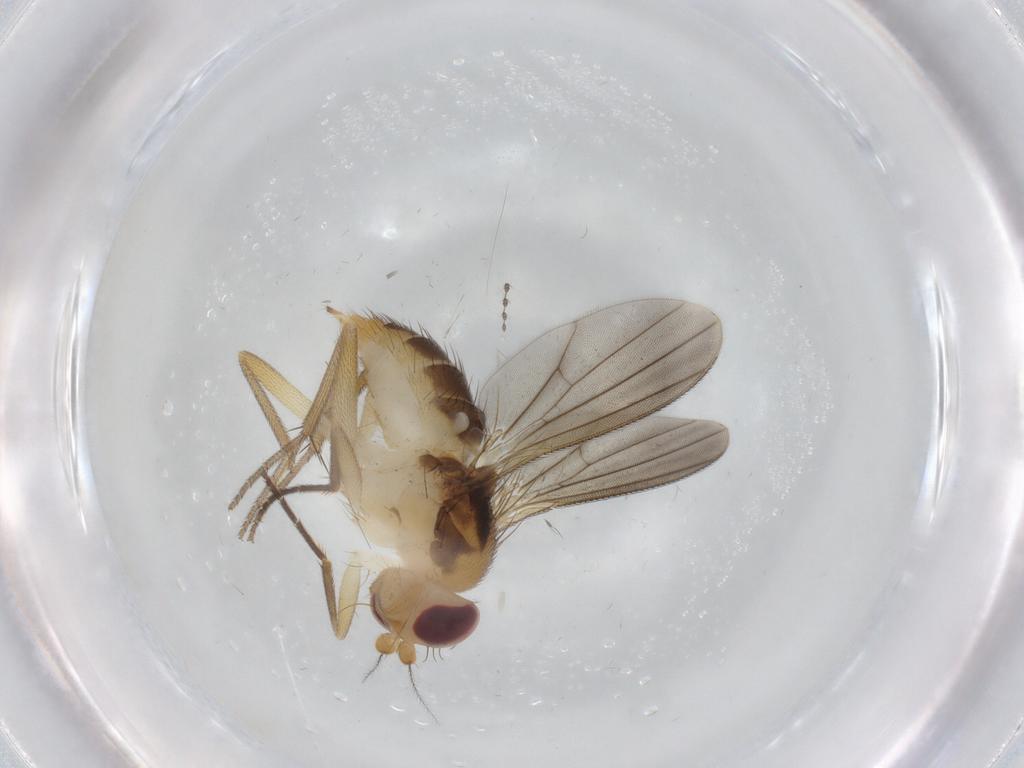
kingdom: Animalia
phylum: Arthropoda
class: Insecta
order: Diptera
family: Clusiidae
